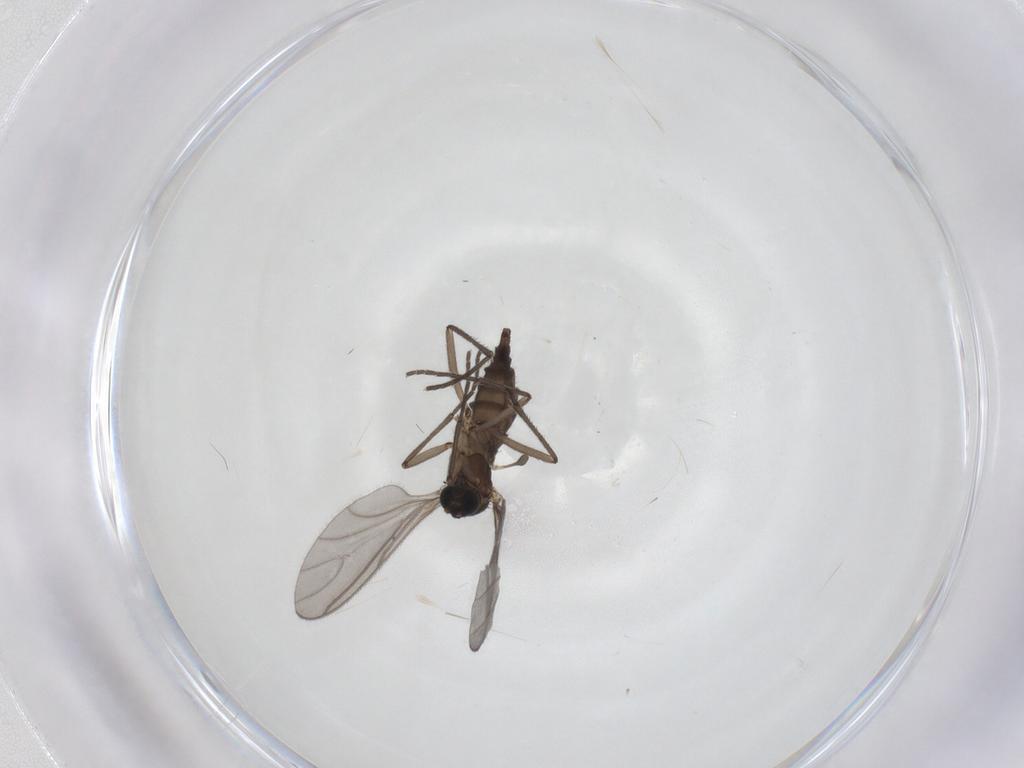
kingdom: Animalia
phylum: Arthropoda
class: Insecta
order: Diptera
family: Sciaridae
